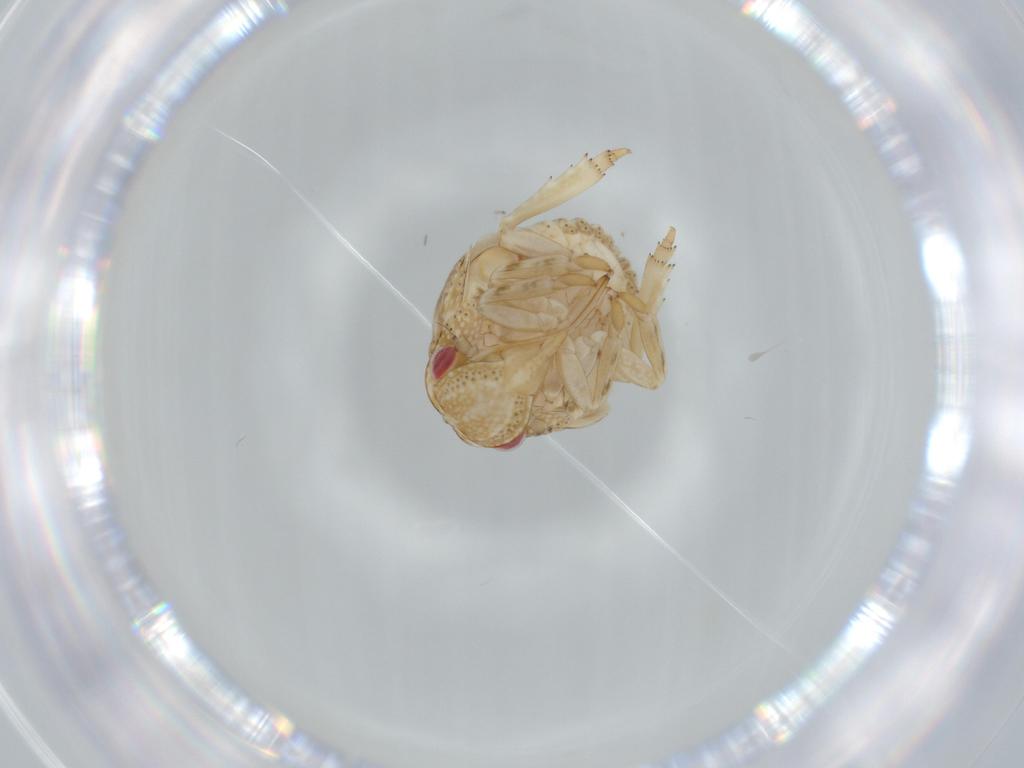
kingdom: Animalia
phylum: Arthropoda
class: Insecta
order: Hemiptera
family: Acanaloniidae
